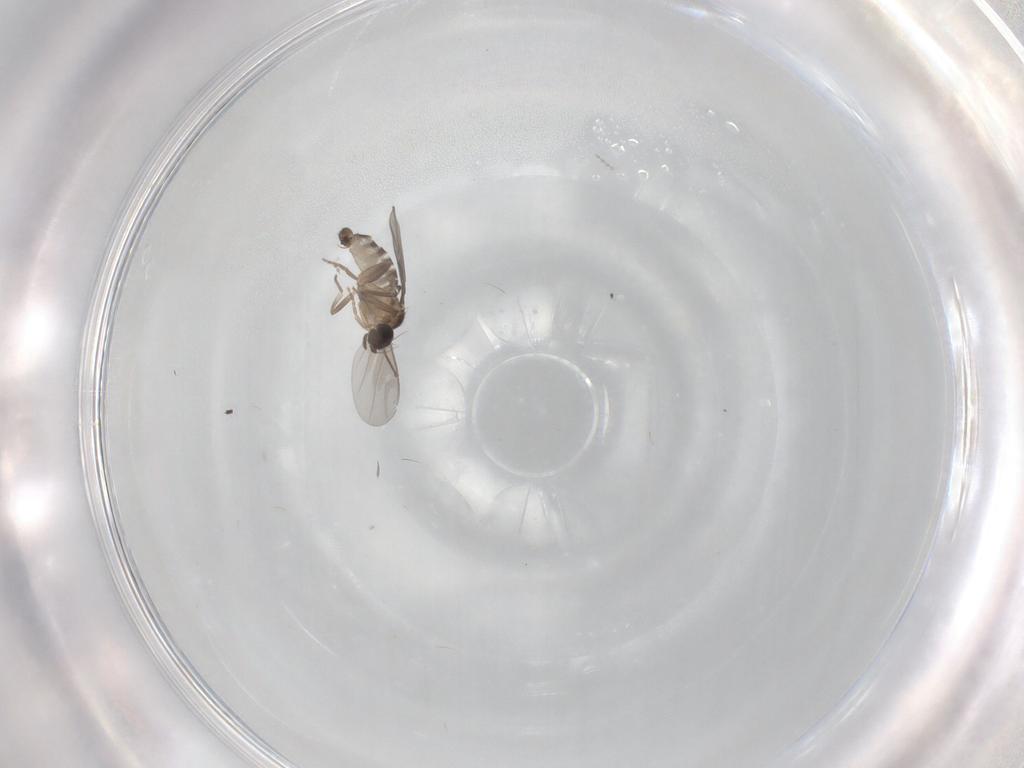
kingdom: Animalia
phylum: Arthropoda
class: Insecta
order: Diptera
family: Cecidomyiidae
